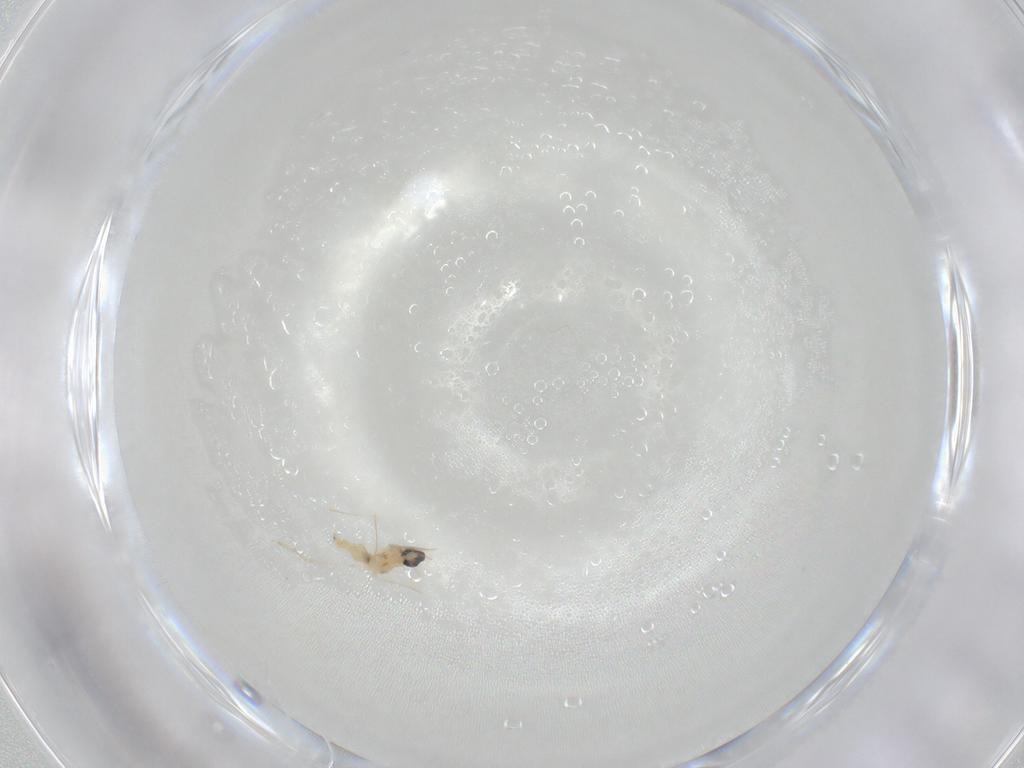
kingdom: Animalia
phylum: Arthropoda
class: Insecta
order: Diptera
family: Cecidomyiidae
